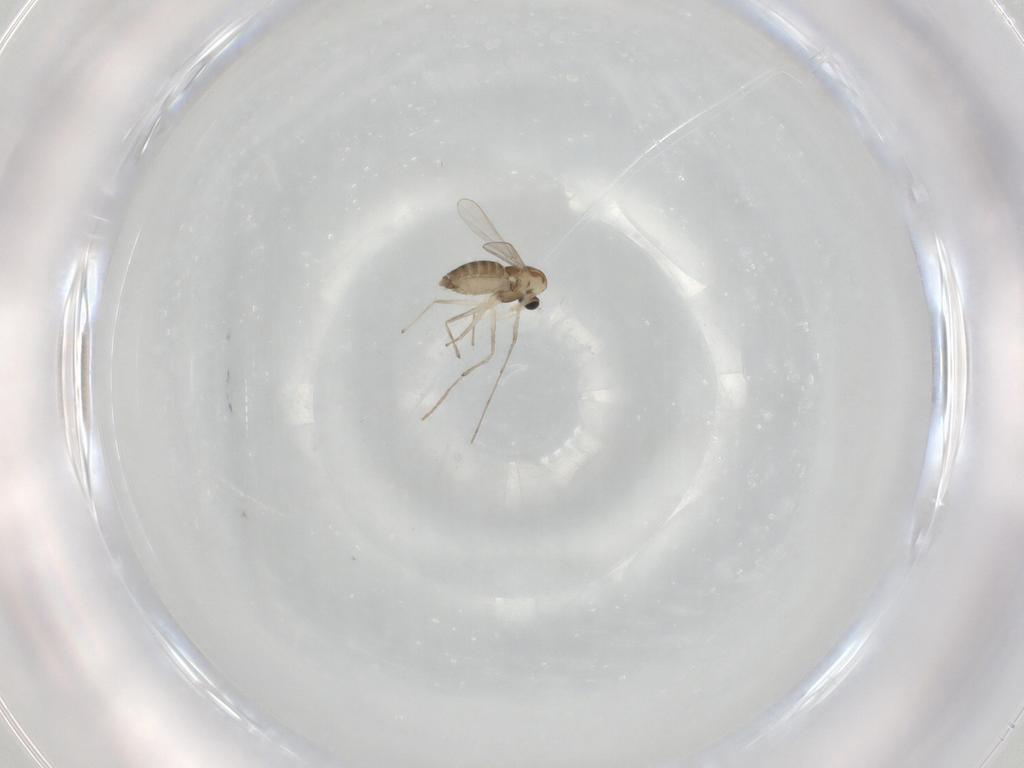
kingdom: Animalia
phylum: Arthropoda
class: Insecta
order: Diptera
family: Chironomidae
